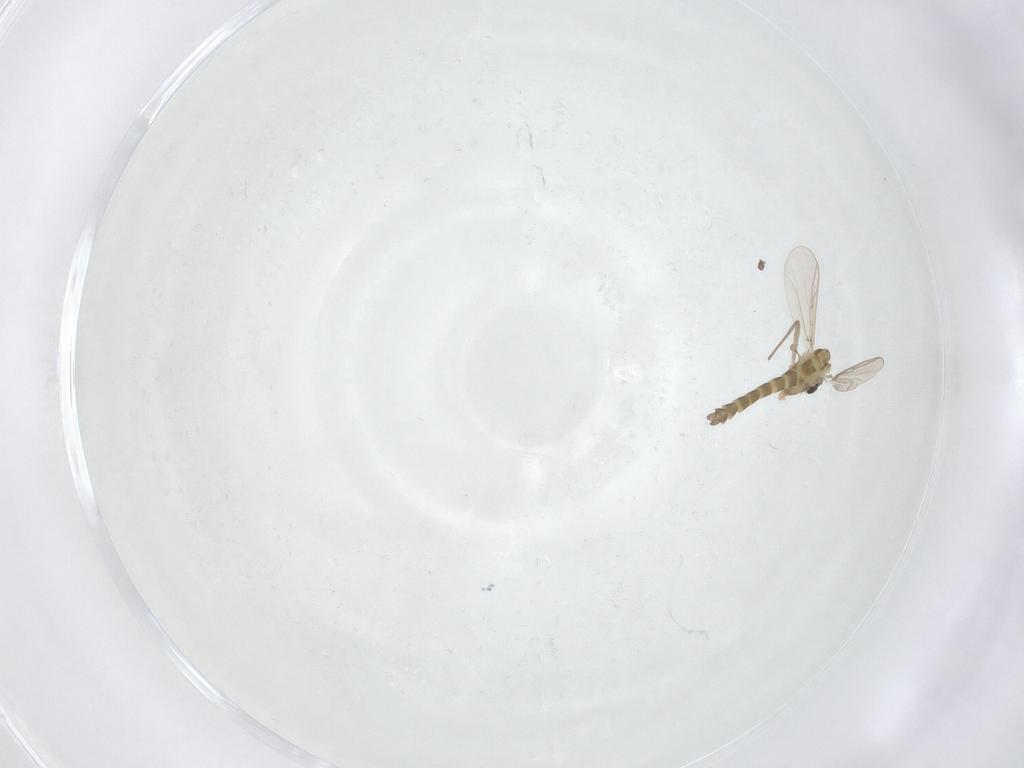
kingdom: Animalia
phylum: Arthropoda
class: Insecta
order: Diptera
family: Chironomidae
